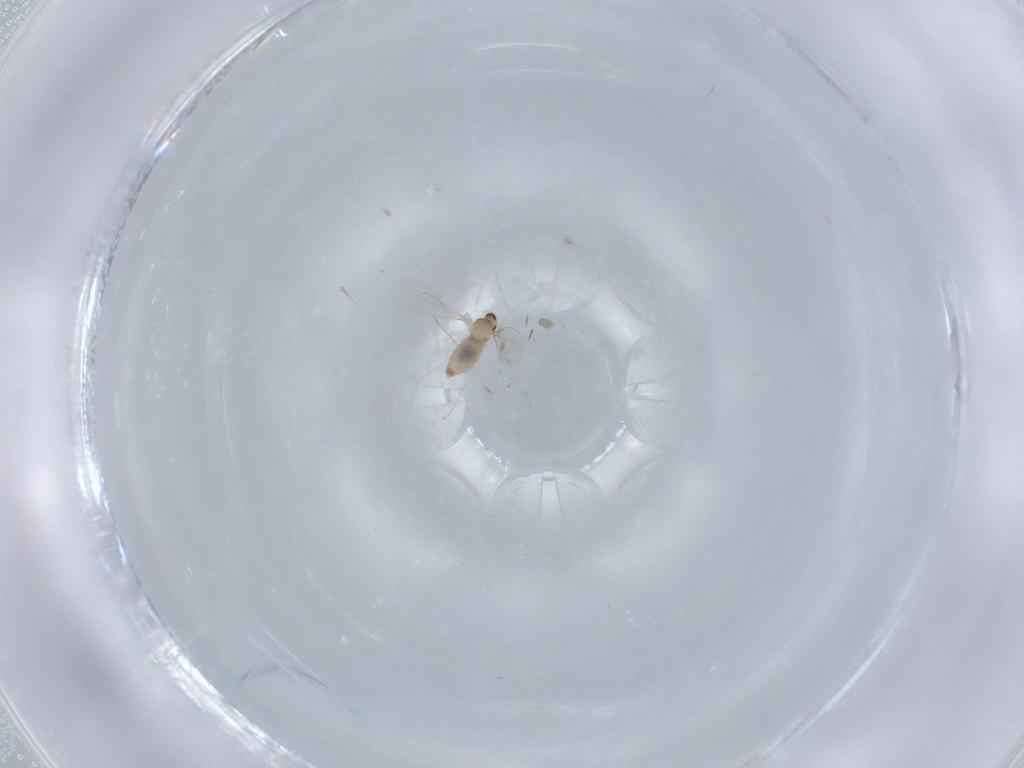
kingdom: Animalia
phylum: Arthropoda
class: Insecta
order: Diptera
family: Cecidomyiidae
